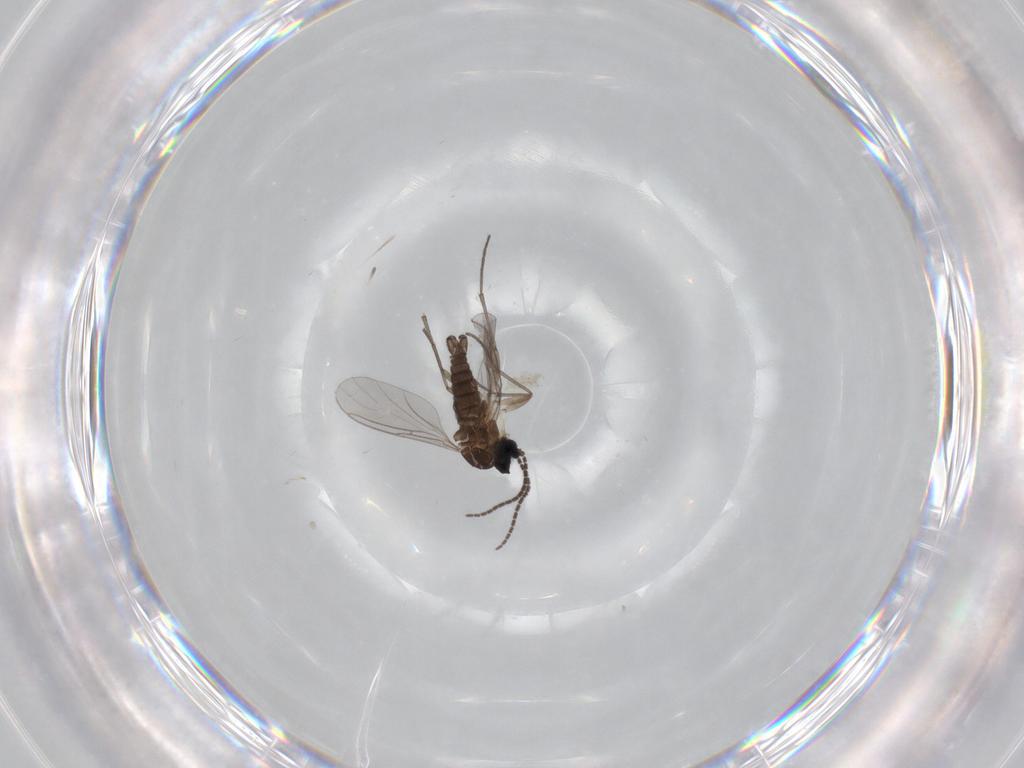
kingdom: Animalia
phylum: Arthropoda
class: Insecta
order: Diptera
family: Sciaridae
